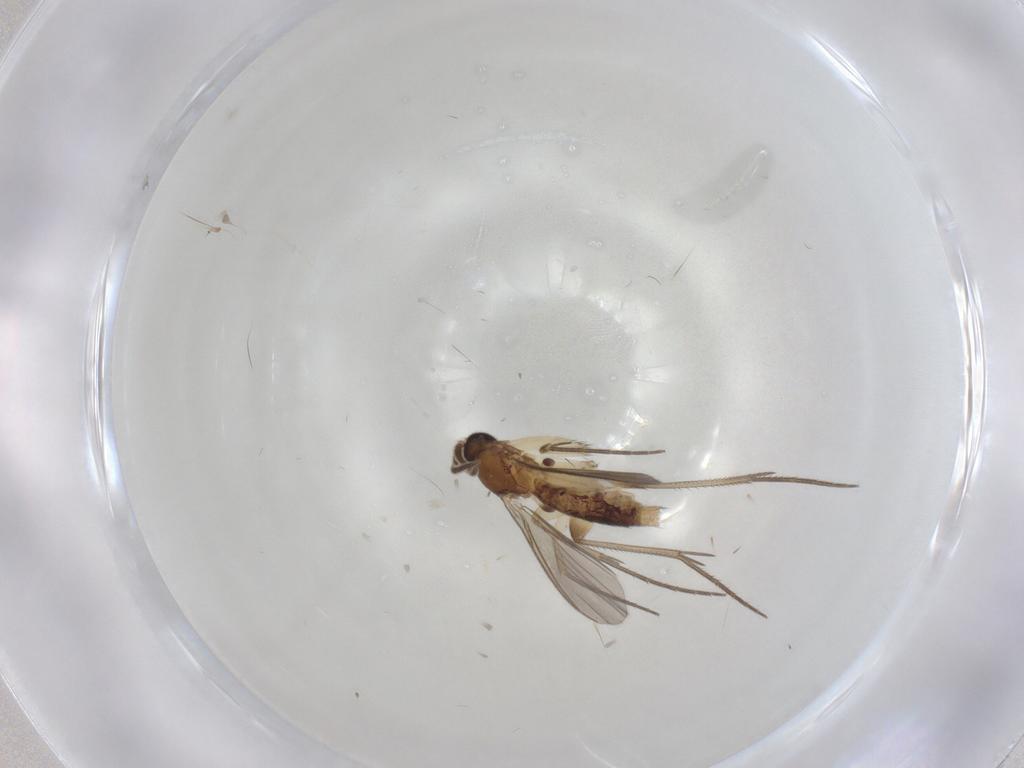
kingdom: Animalia
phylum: Arthropoda
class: Insecta
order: Diptera
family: Mycetophilidae
